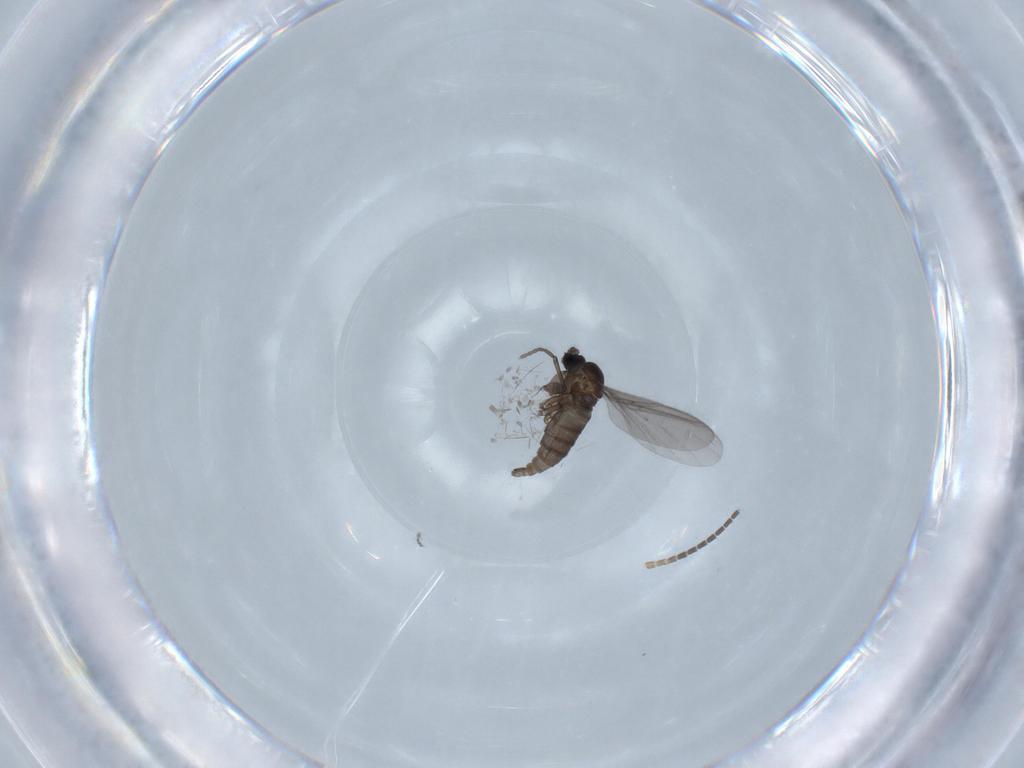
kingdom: Animalia
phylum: Arthropoda
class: Insecta
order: Diptera
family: Sciaridae
